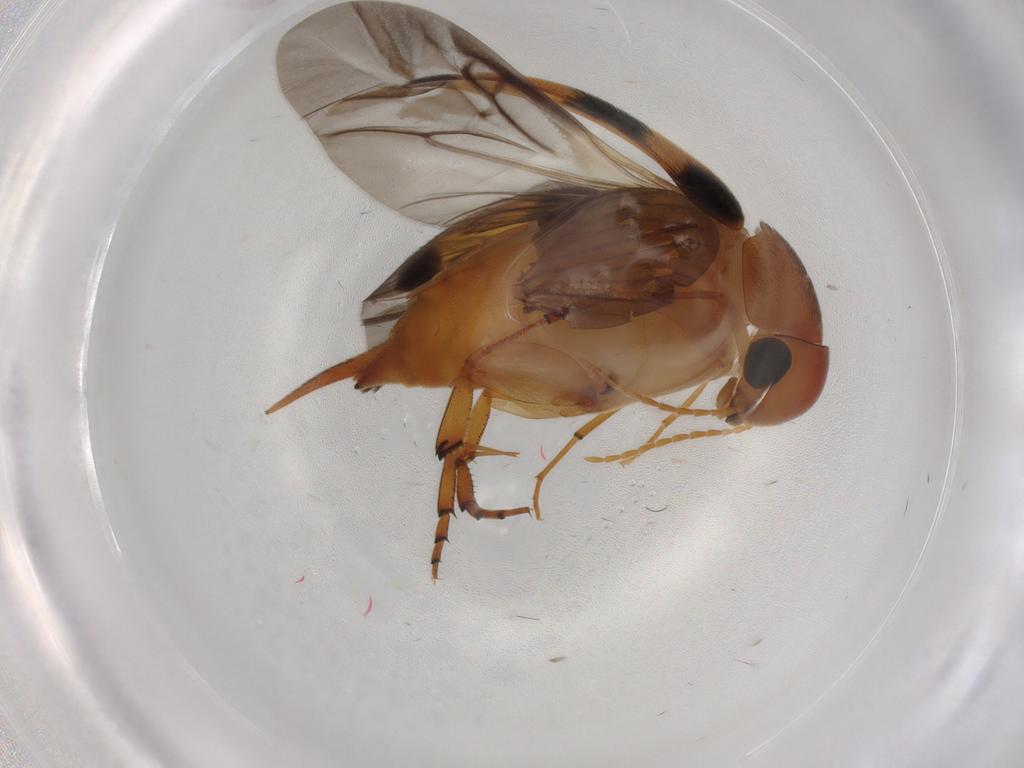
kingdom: Animalia
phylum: Arthropoda
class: Insecta
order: Coleoptera
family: Mordellidae
